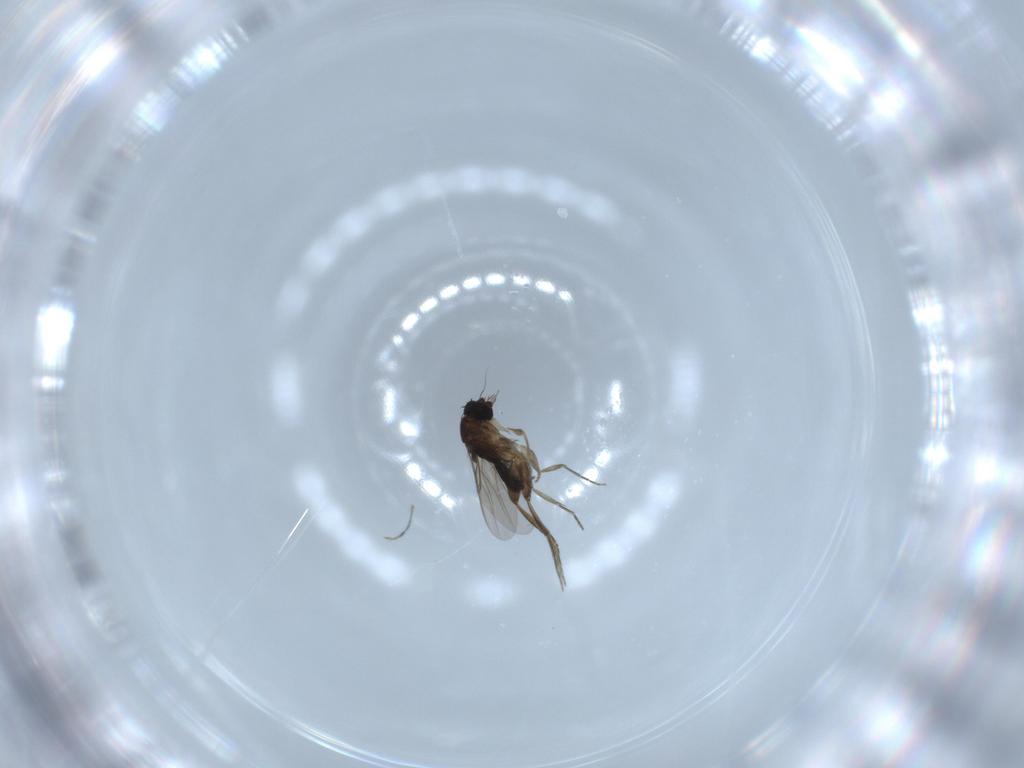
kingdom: Animalia
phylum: Arthropoda
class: Insecta
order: Diptera
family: Phoridae
